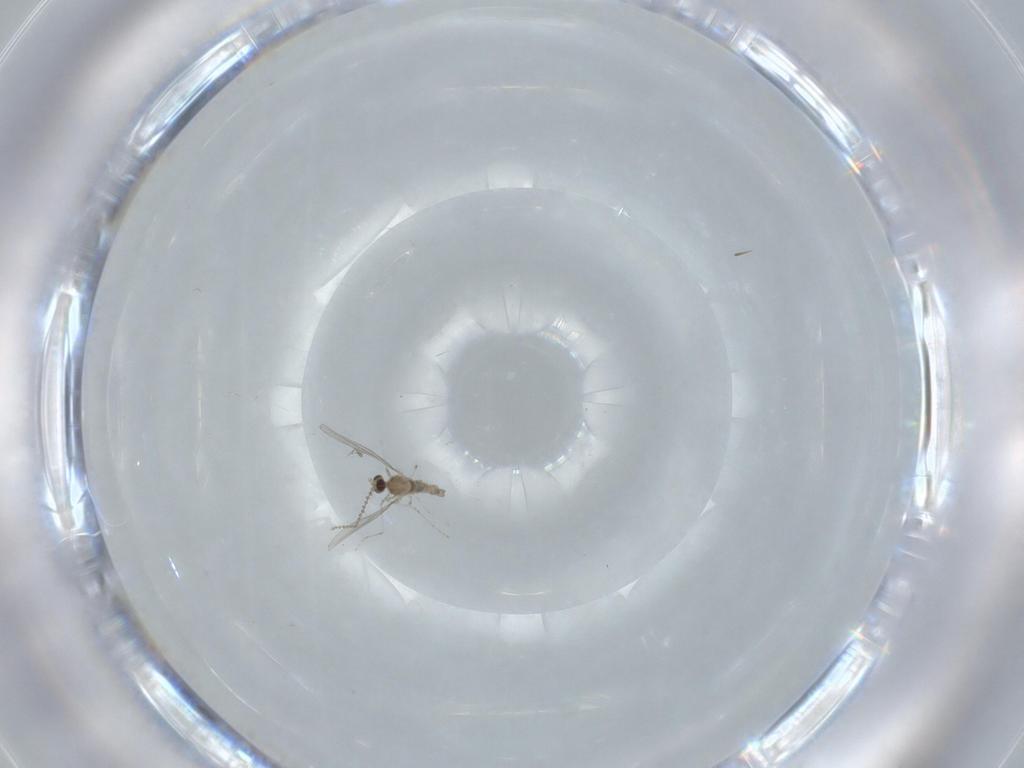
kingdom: Animalia
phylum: Arthropoda
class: Insecta
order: Diptera
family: Cecidomyiidae
